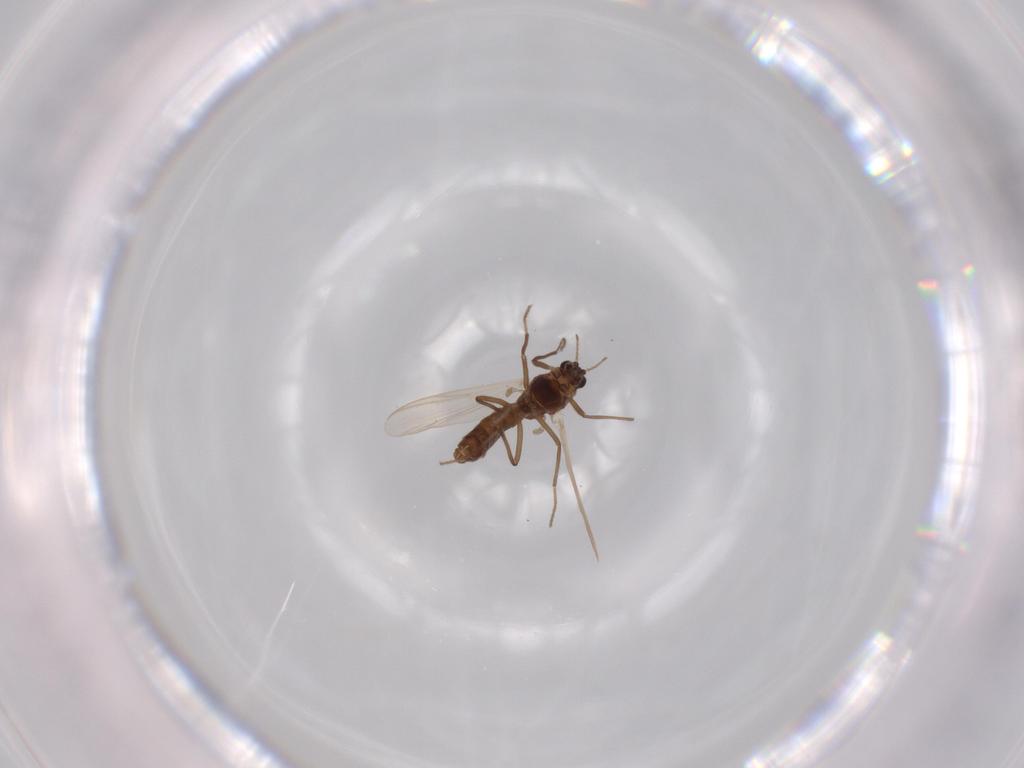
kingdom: Animalia
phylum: Arthropoda
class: Insecta
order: Diptera
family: Chironomidae
